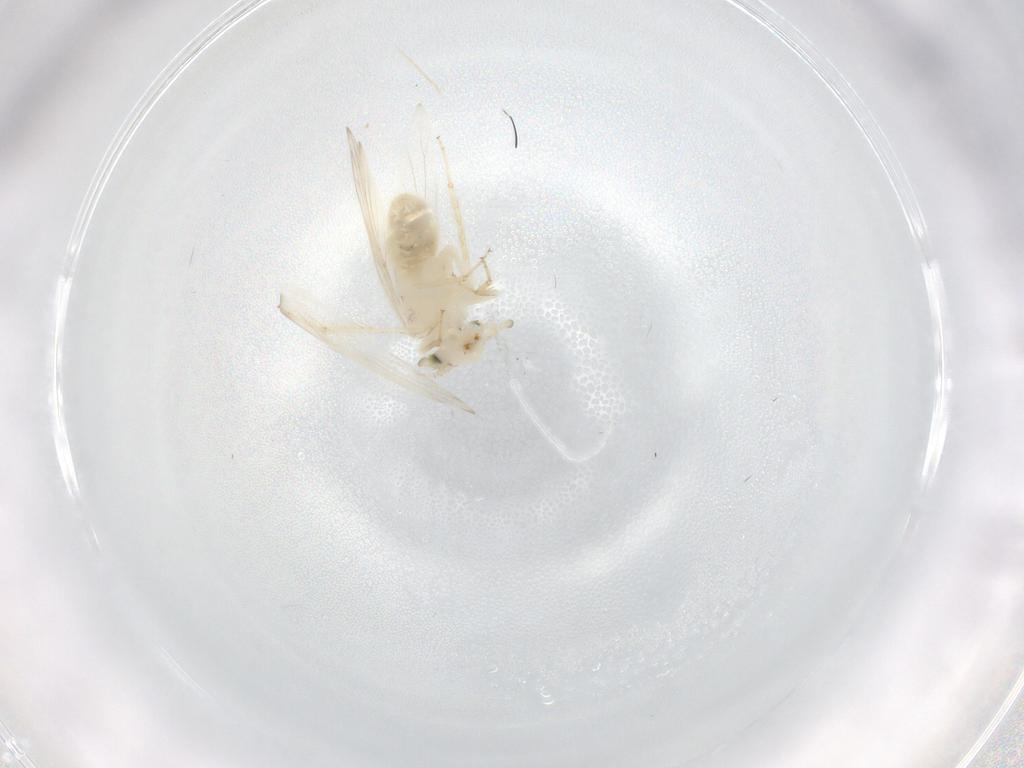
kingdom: Animalia
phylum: Arthropoda
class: Insecta
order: Psocodea
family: Lepidopsocidae
